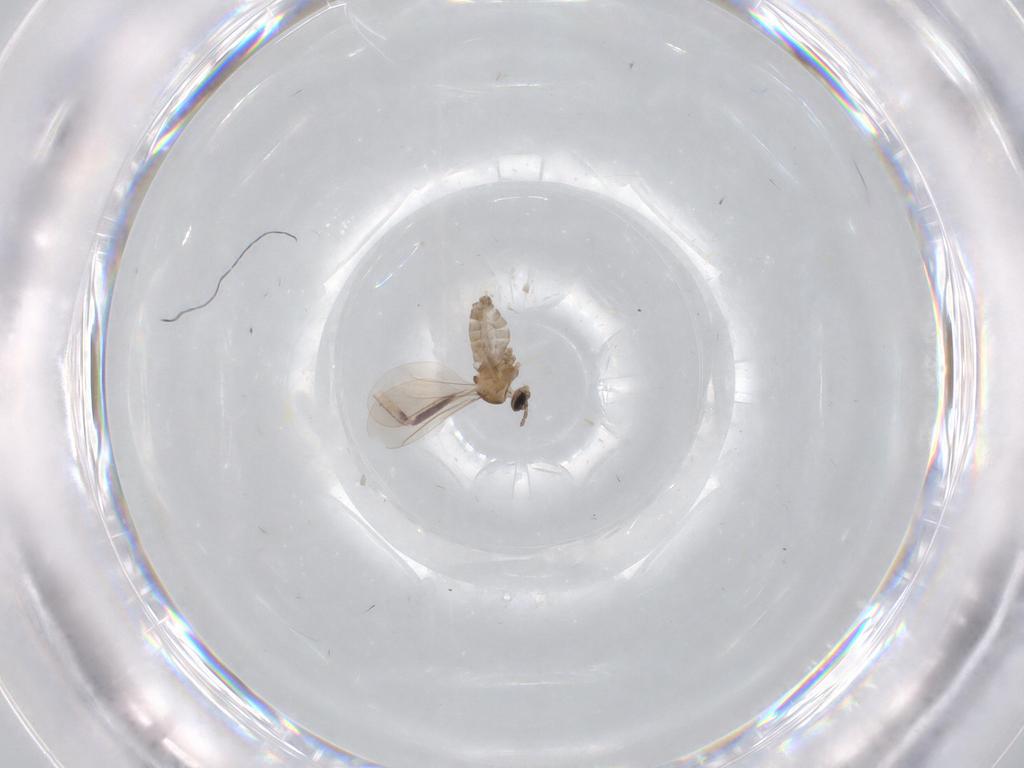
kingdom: Animalia
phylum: Arthropoda
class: Insecta
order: Diptera
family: Cecidomyiidae
